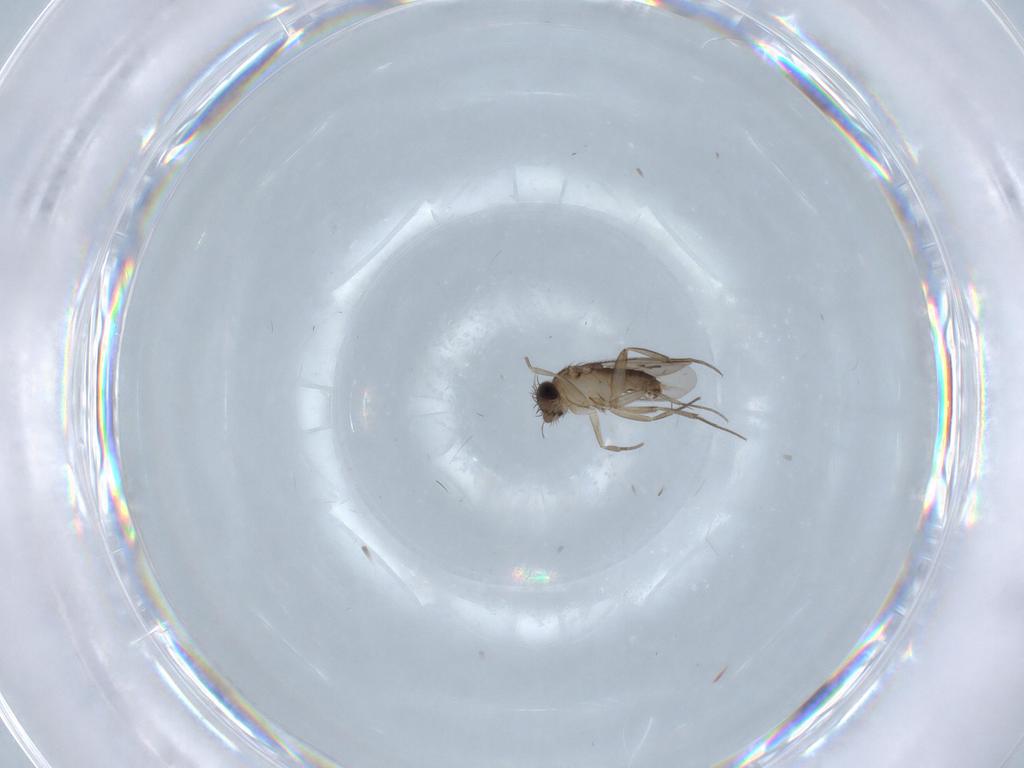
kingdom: Animalia
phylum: Arthropoda
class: Insecta
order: Diptera
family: Phoridae
